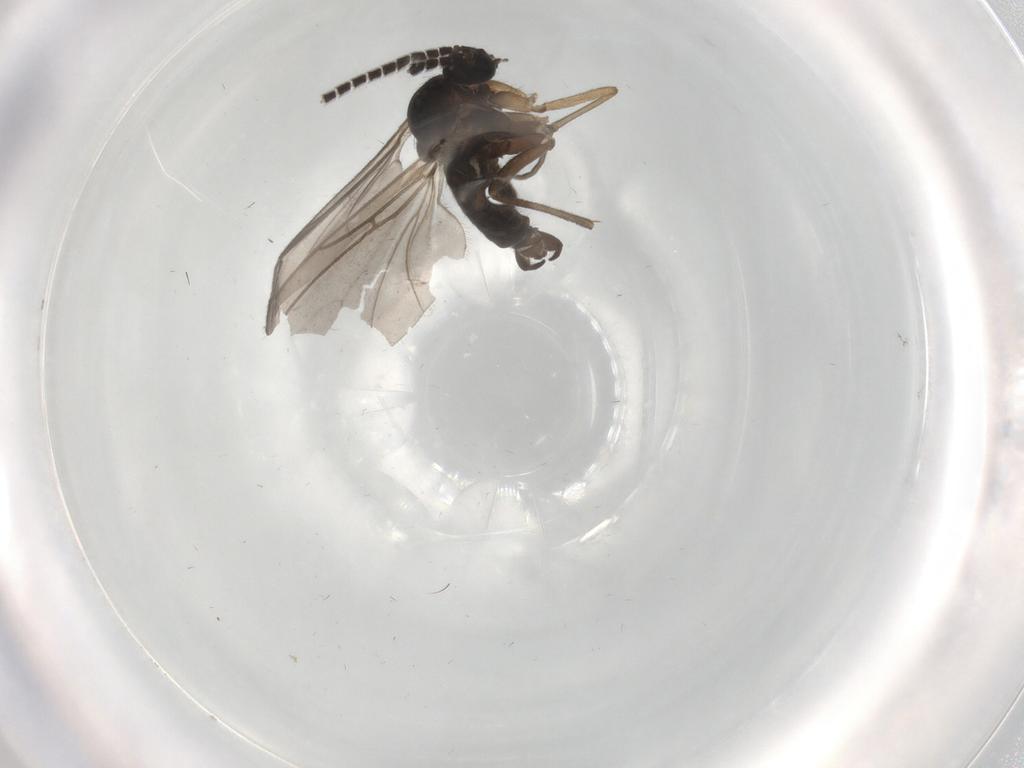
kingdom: Animalia
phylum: Arthropoda
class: Insecta
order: Diptera
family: Sciaridae
